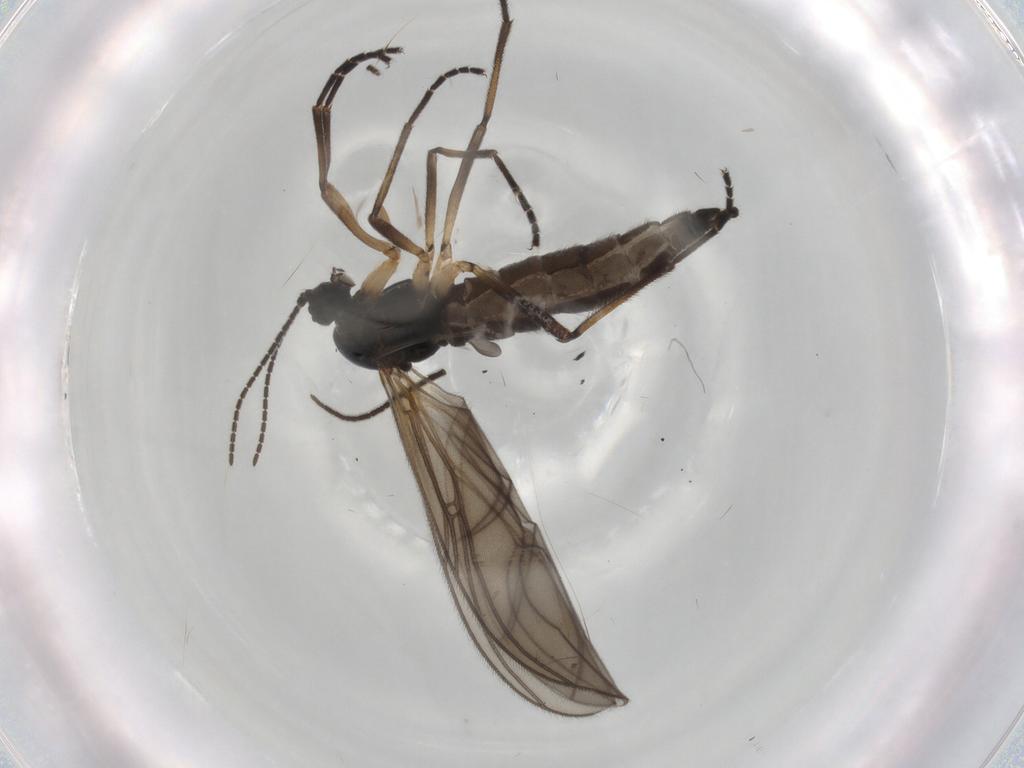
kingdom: Animalia
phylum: Arthropoda
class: Insecta
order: Diptera
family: Sciaridae
